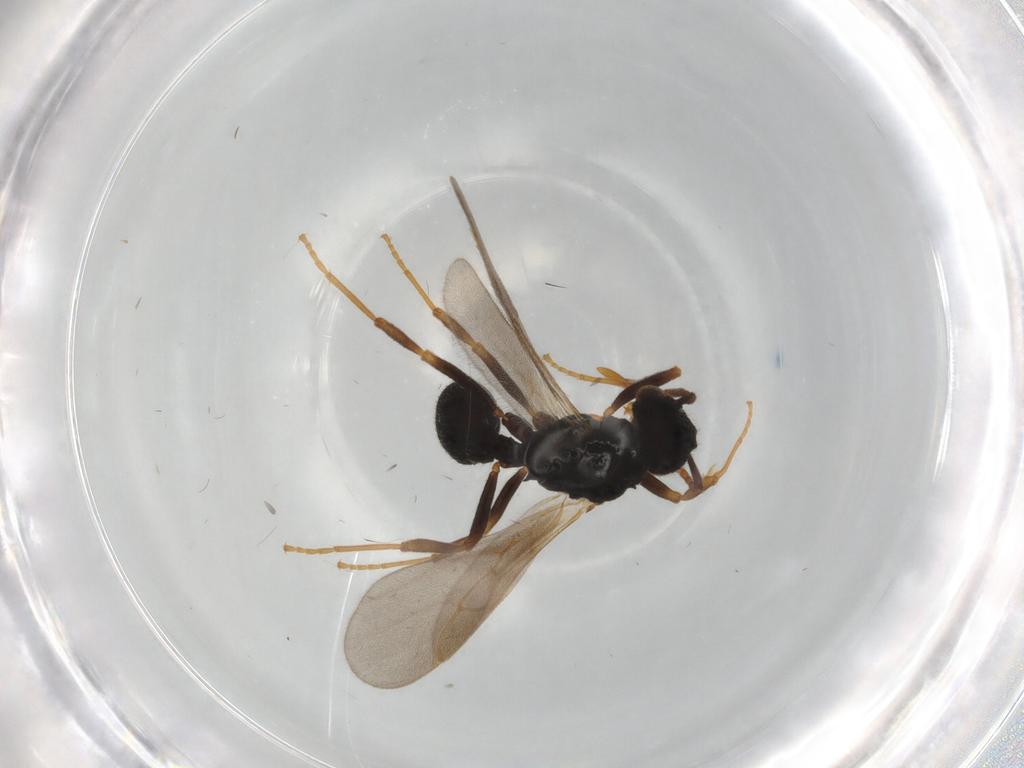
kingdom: Animalia
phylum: Arthropoda
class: Insecta
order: Hymenoptera
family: Formicidae
